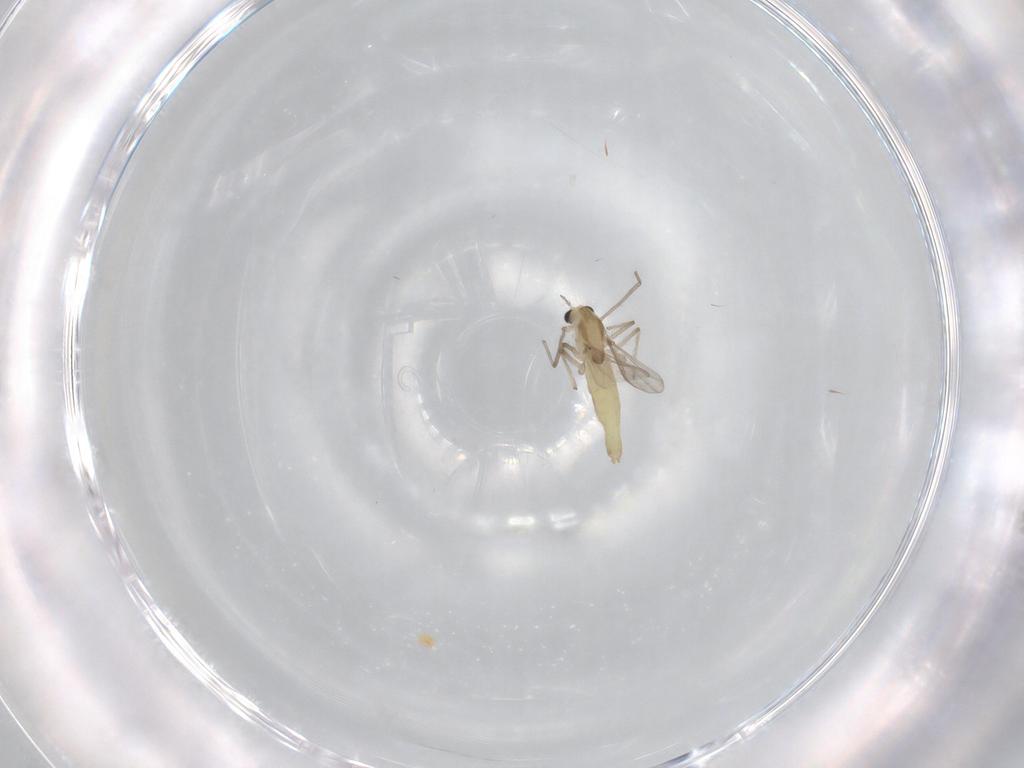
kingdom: Animalia
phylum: Arthropoda
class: Insecta
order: Diptera
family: Chironomidae
